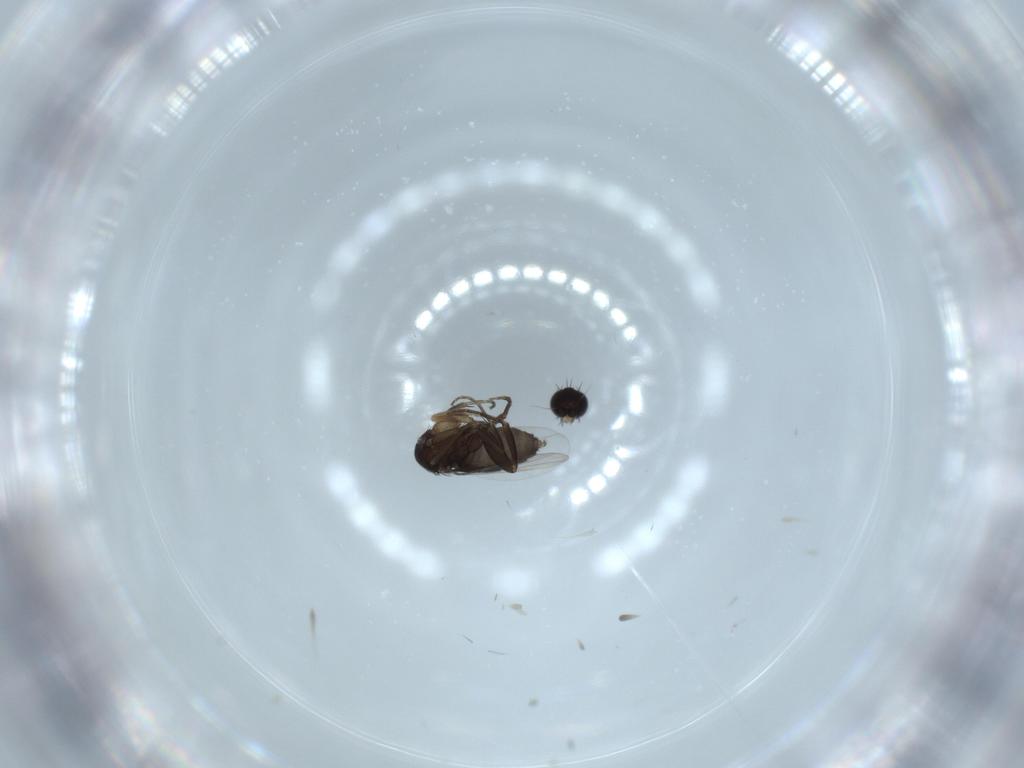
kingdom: Animalia
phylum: Arthropoda
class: Insecta
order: Diptera
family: Phoridae
